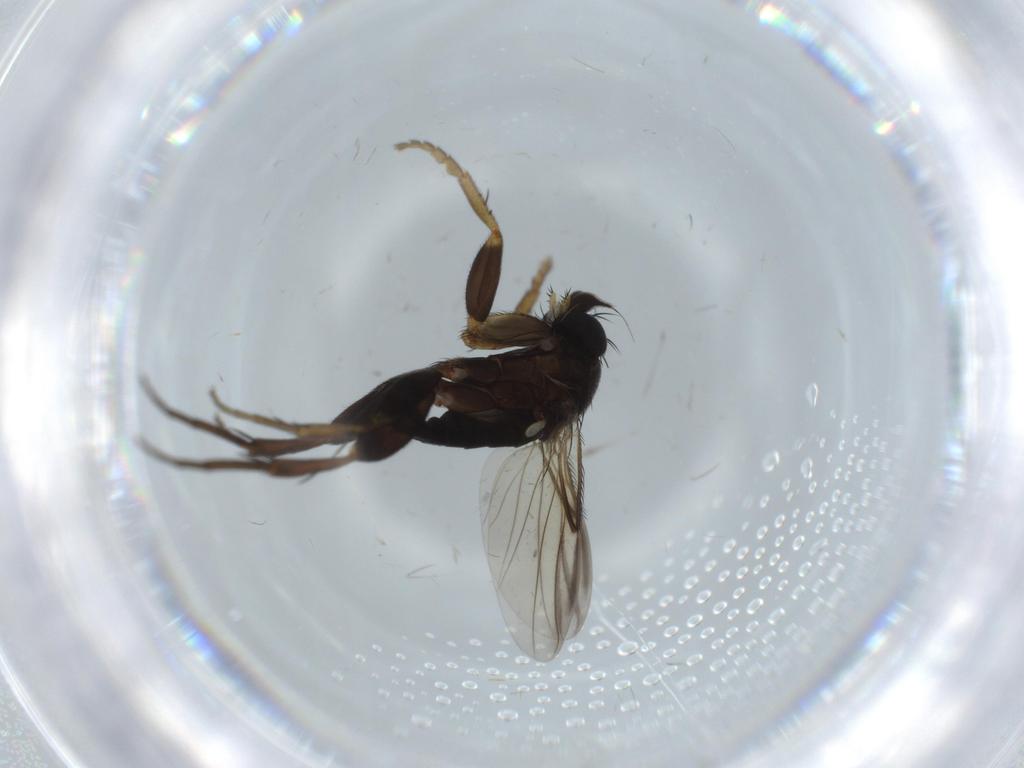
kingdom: Animalia
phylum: Arthropoda
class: Insecta
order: Diptera
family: Phoridae
